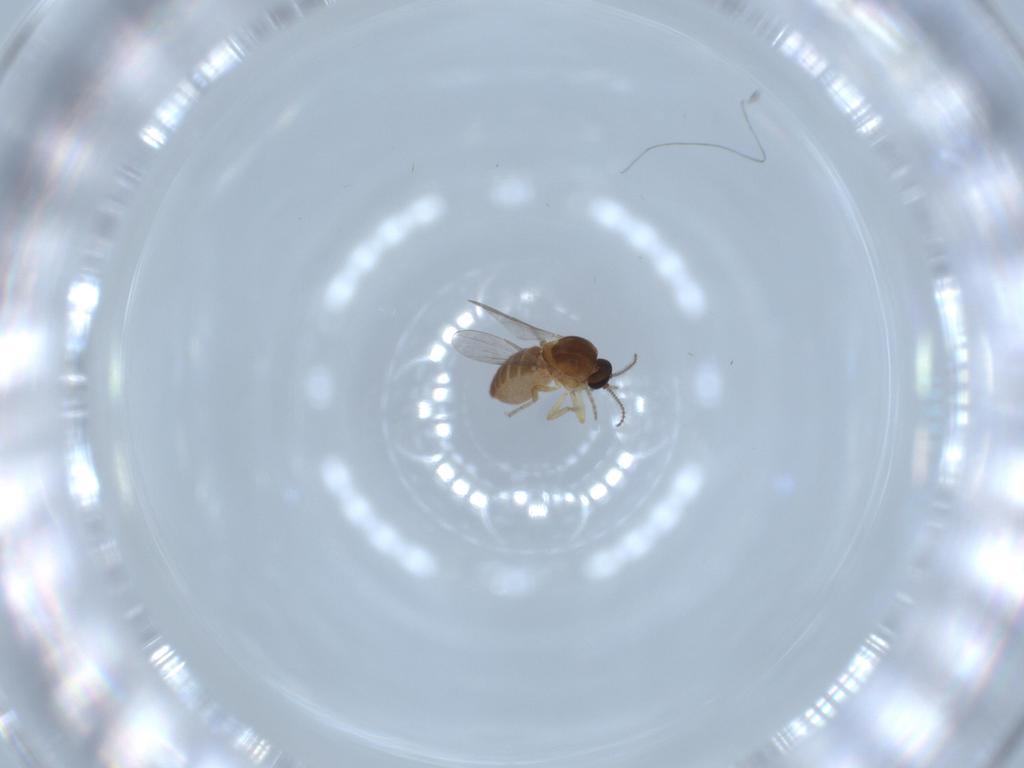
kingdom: Animalia
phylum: Arthropoda
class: Insecta
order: Diptera
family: Ceratopogonidae
